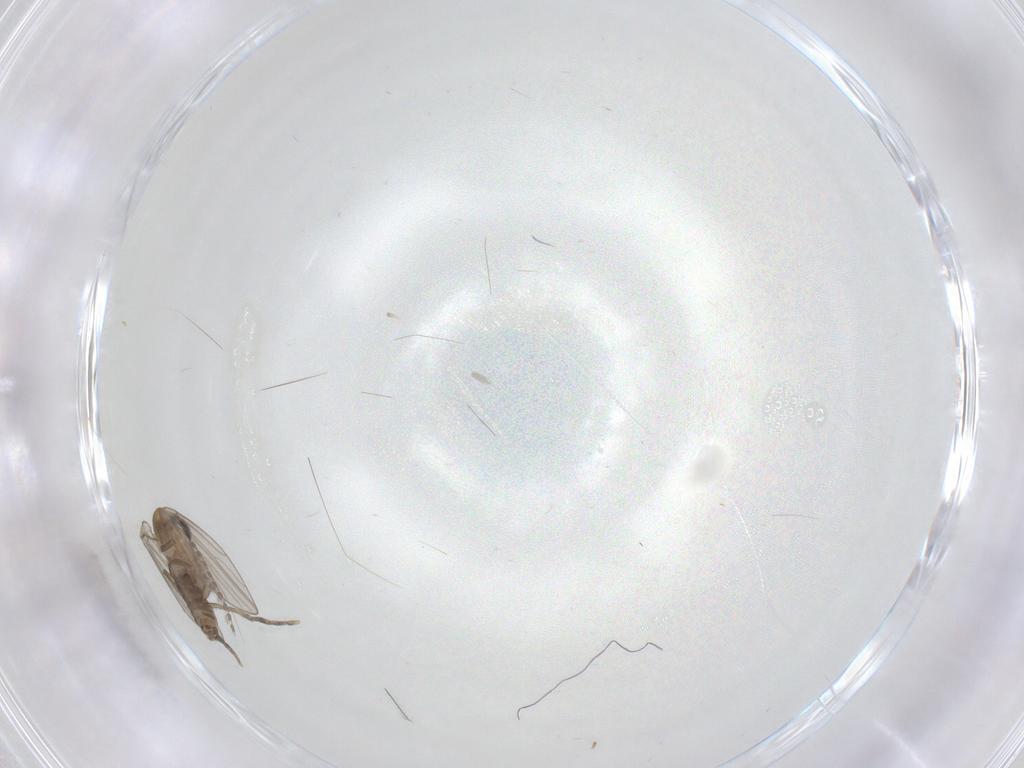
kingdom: Animalia
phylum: Arthropoda
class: Insecta
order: Diptera
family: Psychodidae
